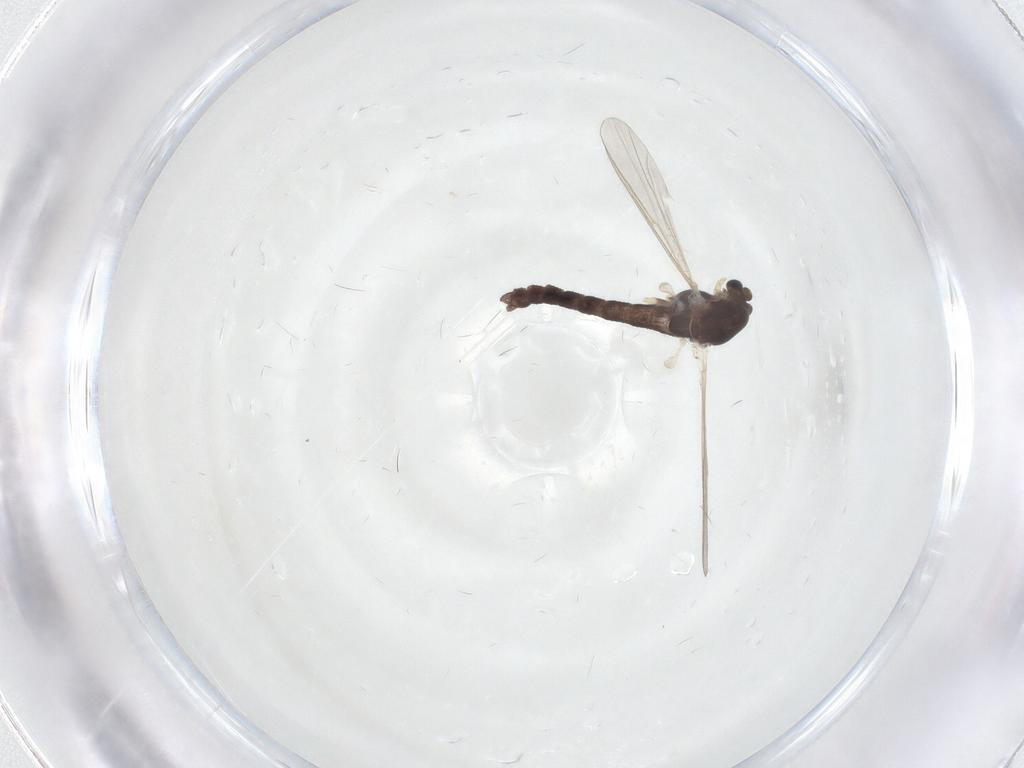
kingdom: Animalia
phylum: Arthropoda
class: Insecta
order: Diptera
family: Chironomidae
